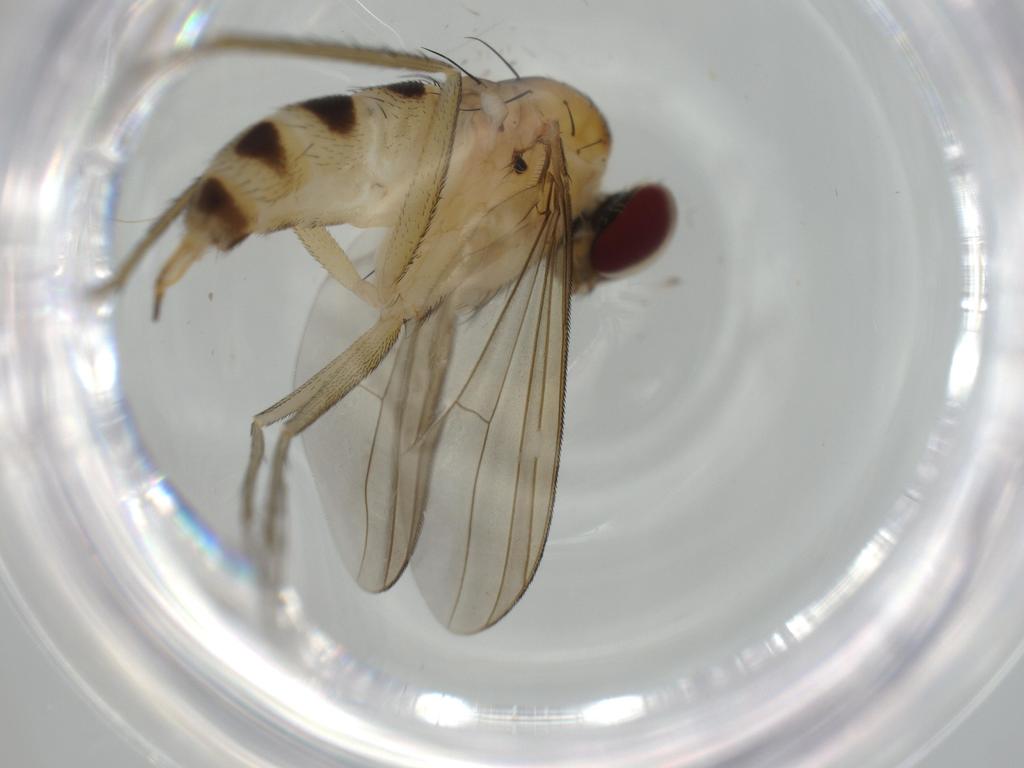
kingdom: Animalia
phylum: Arthropoda
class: Insecta
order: Diptera
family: Dolichopodidae
